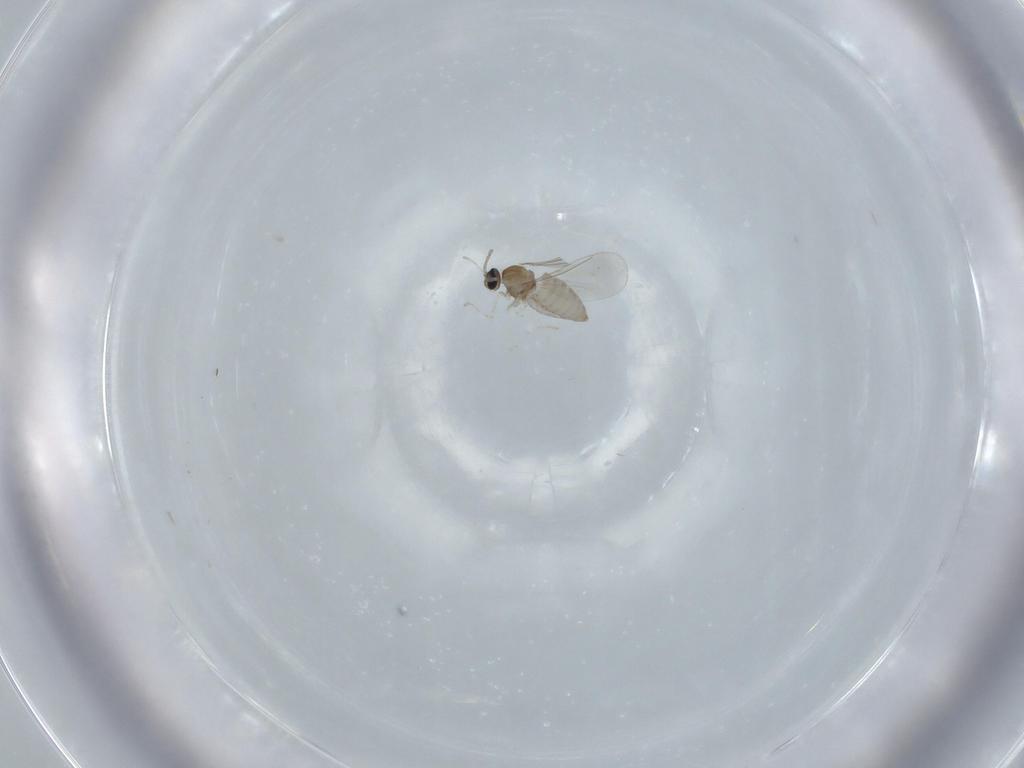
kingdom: Animalia
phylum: Arthropoda
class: Insecta
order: Diptera
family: Cecidomyiidae
